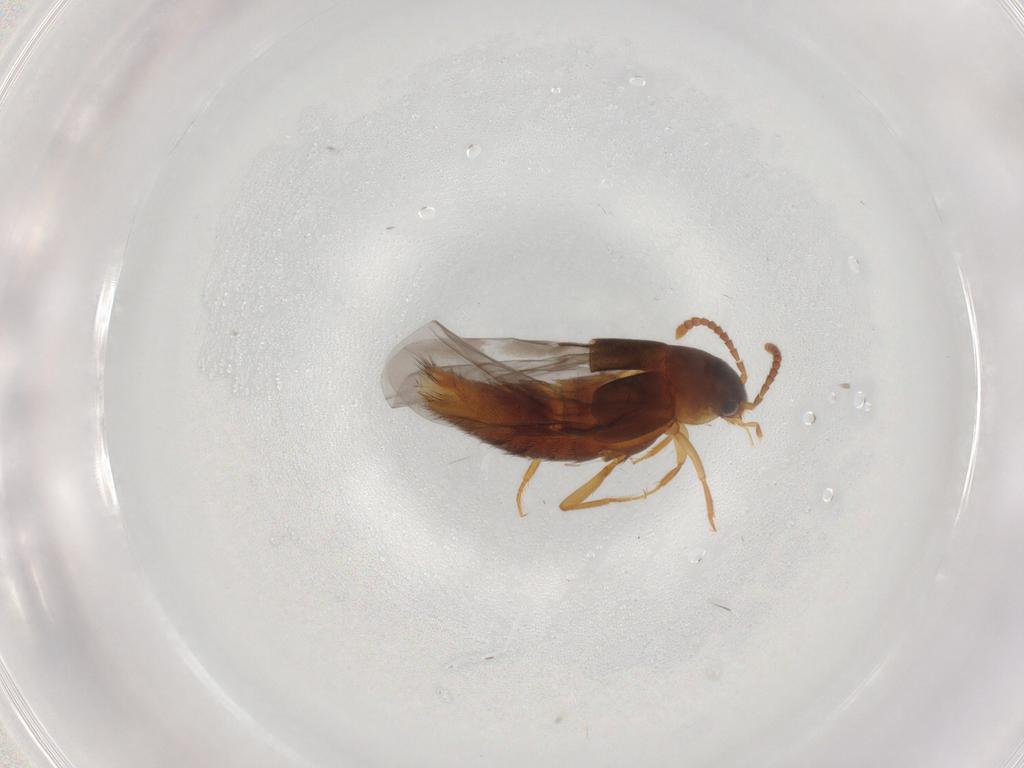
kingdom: Animalia
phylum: Arthropoda
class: Insecta
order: Coleoptera
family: Staphylinidae
